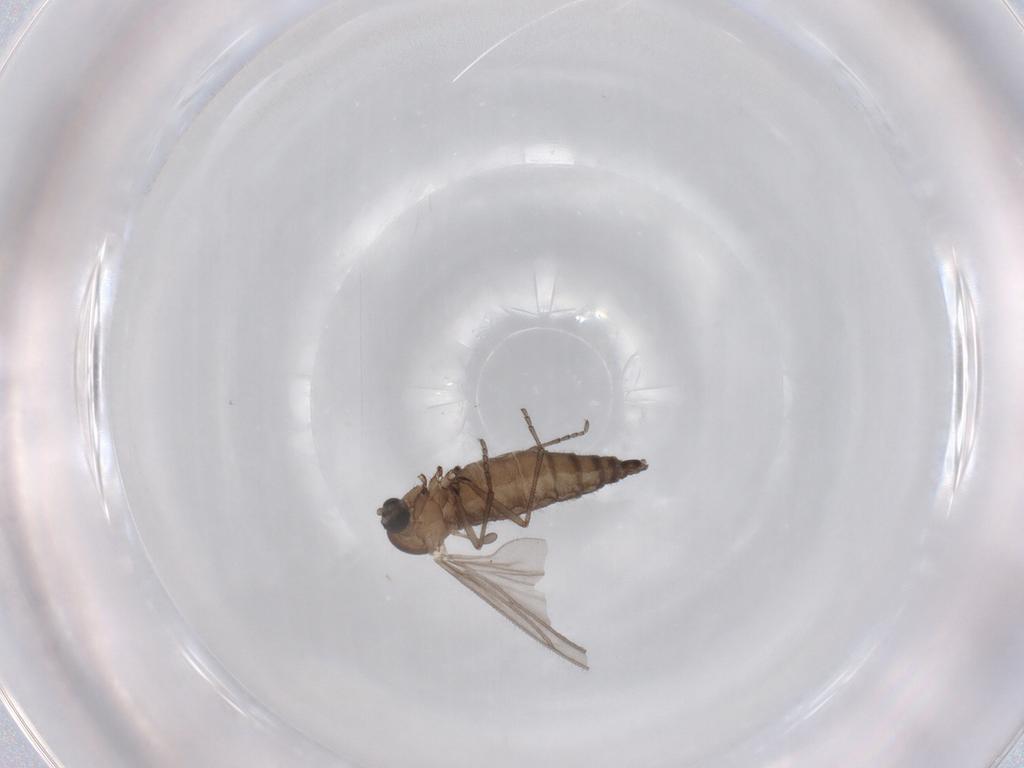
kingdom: Animalia
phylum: Arthropoda
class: Insecta
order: Diptera
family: Sciaridae
